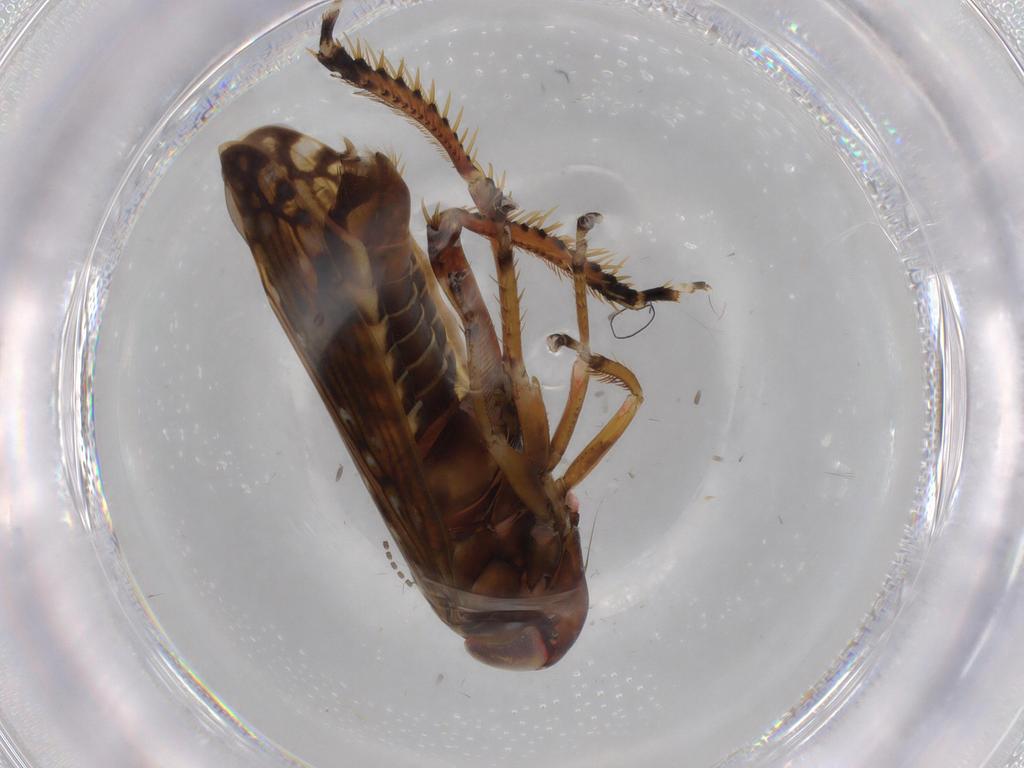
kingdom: Animalia
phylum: Arthropoda
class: Insecta
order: Hemiptera
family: Cicadellidae
